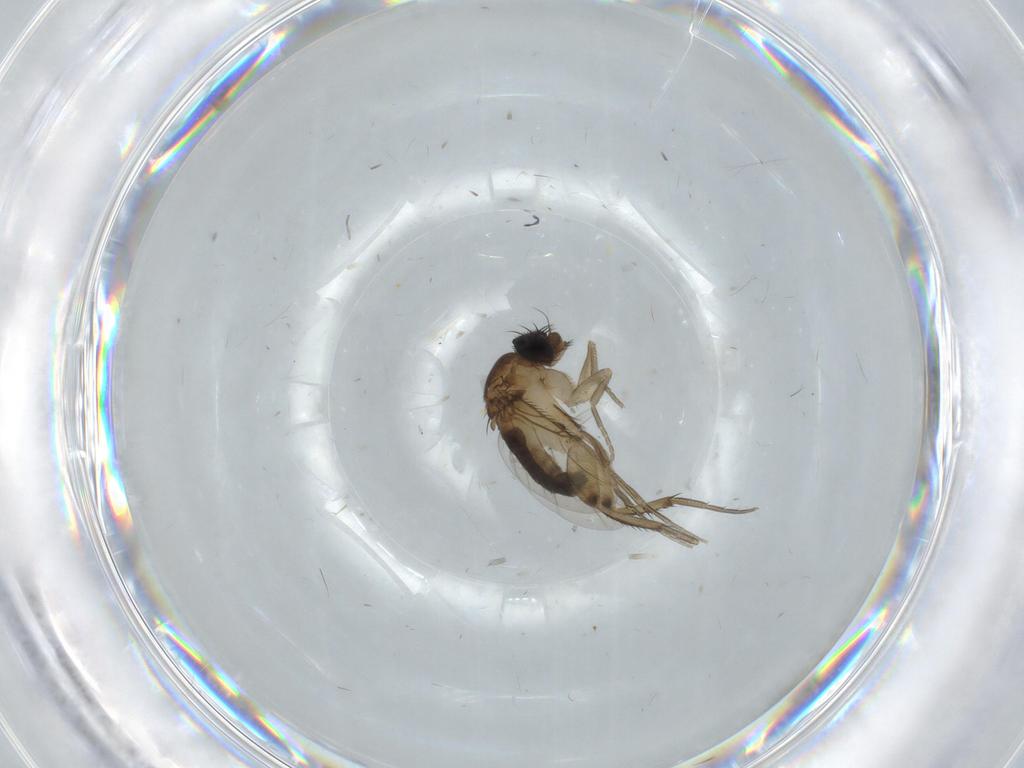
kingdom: Animalia
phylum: Arthropoda
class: Insecta
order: Diptera
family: Phoridae
